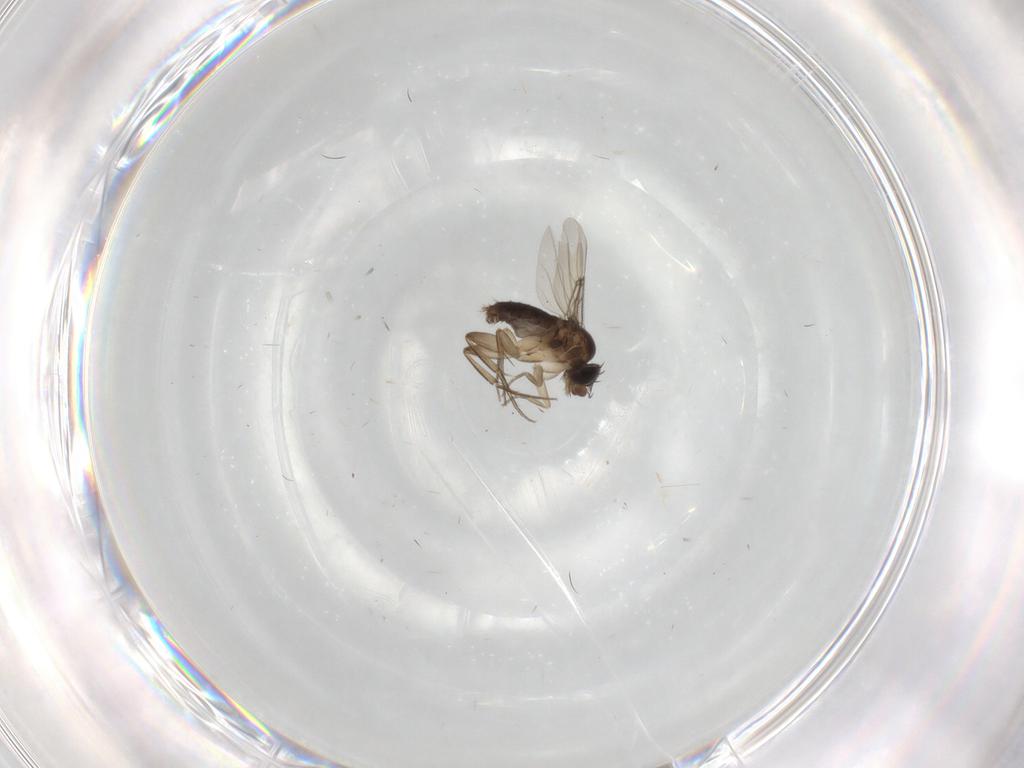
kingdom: Animalia
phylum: Arthropoda
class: Insecta
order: Diptera
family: Phoridae
